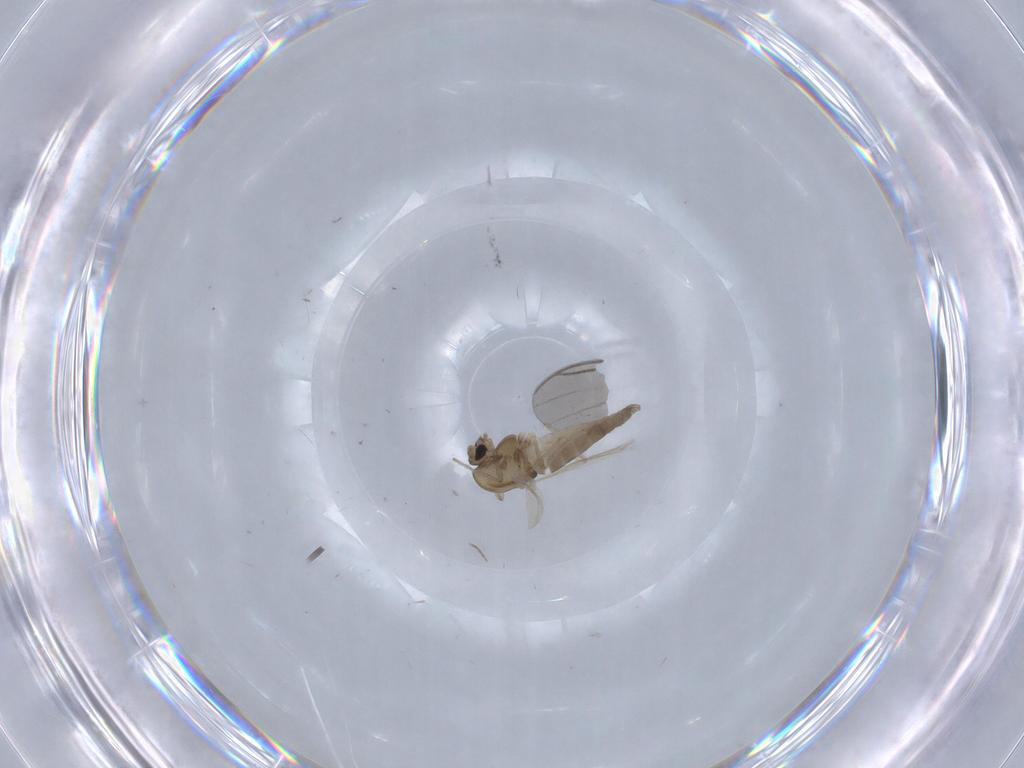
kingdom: Animalia
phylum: Arthropoda
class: Insecta
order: Diptera
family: Chironomidae
